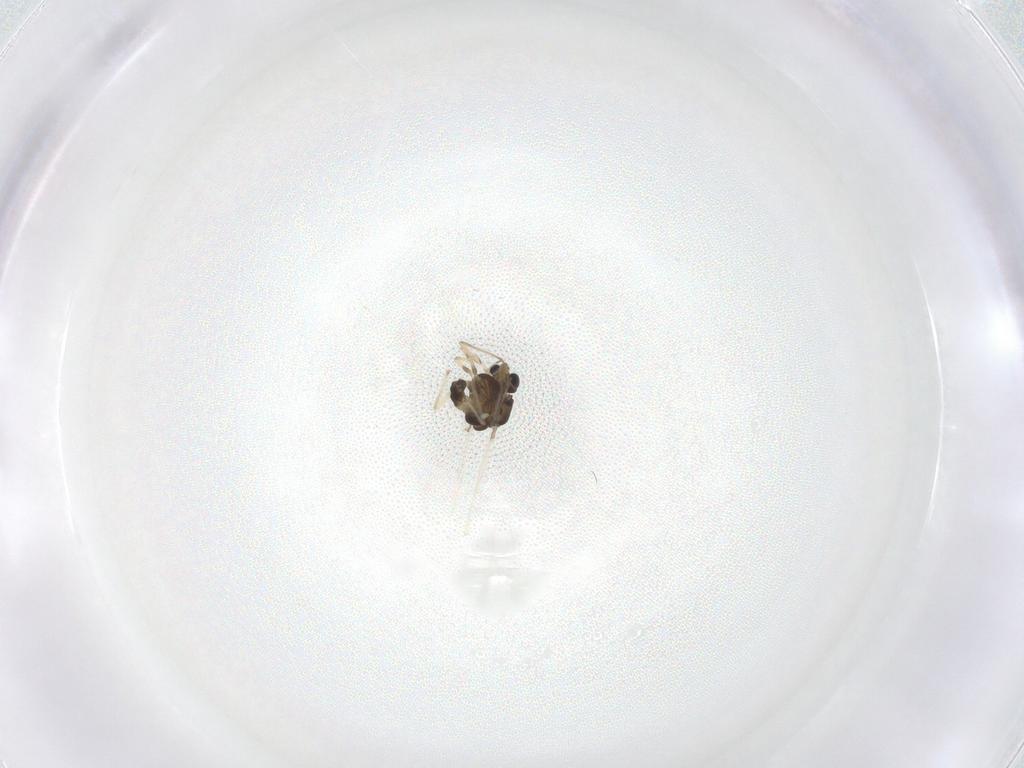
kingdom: Animalia
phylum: Arthropoda
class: Insecta
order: Diptera
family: Chironomidae
